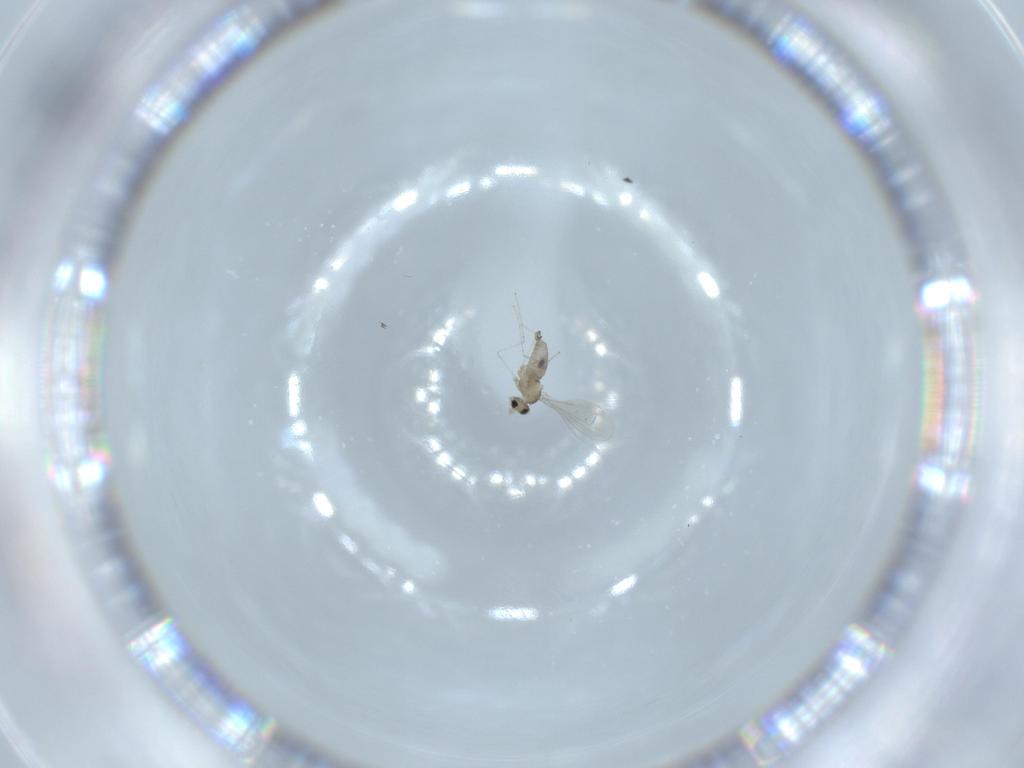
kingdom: Animalia
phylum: Arthropoda
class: Insecta
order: Diptera
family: Cecidomyiidae
